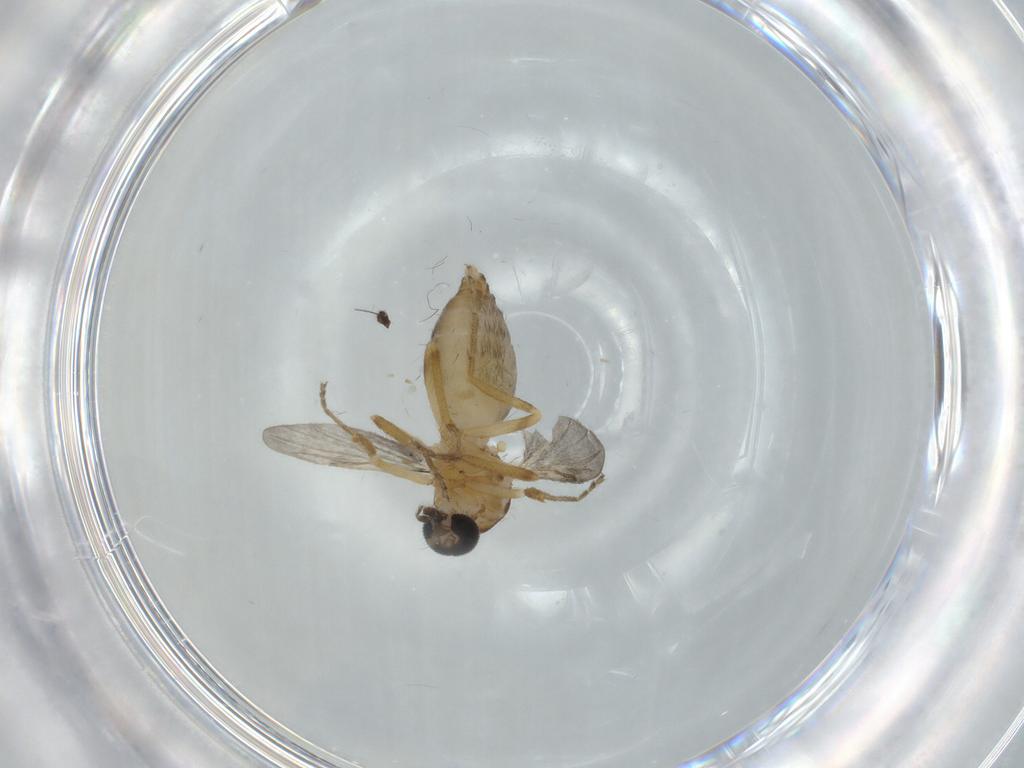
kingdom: Animalia
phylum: Arthropoda
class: Insecta
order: Diptera
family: Ceratopogonidae
